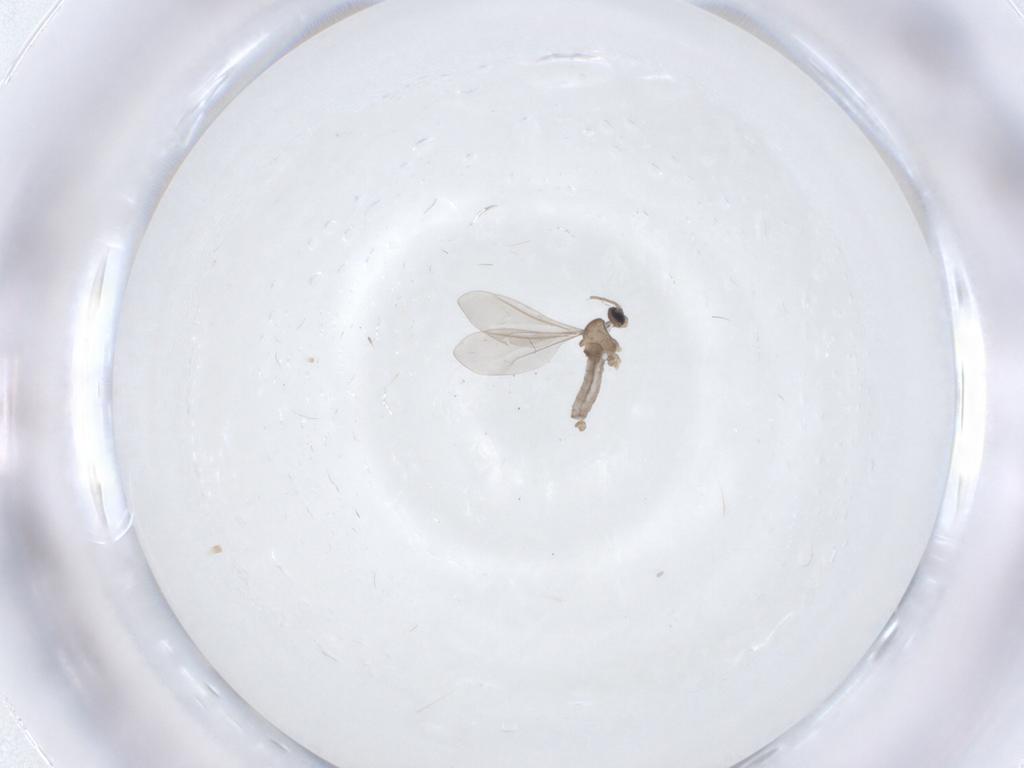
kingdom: Animalia
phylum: Arthropoda
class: Insecta
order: Diptera
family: Cecidomyiidae
